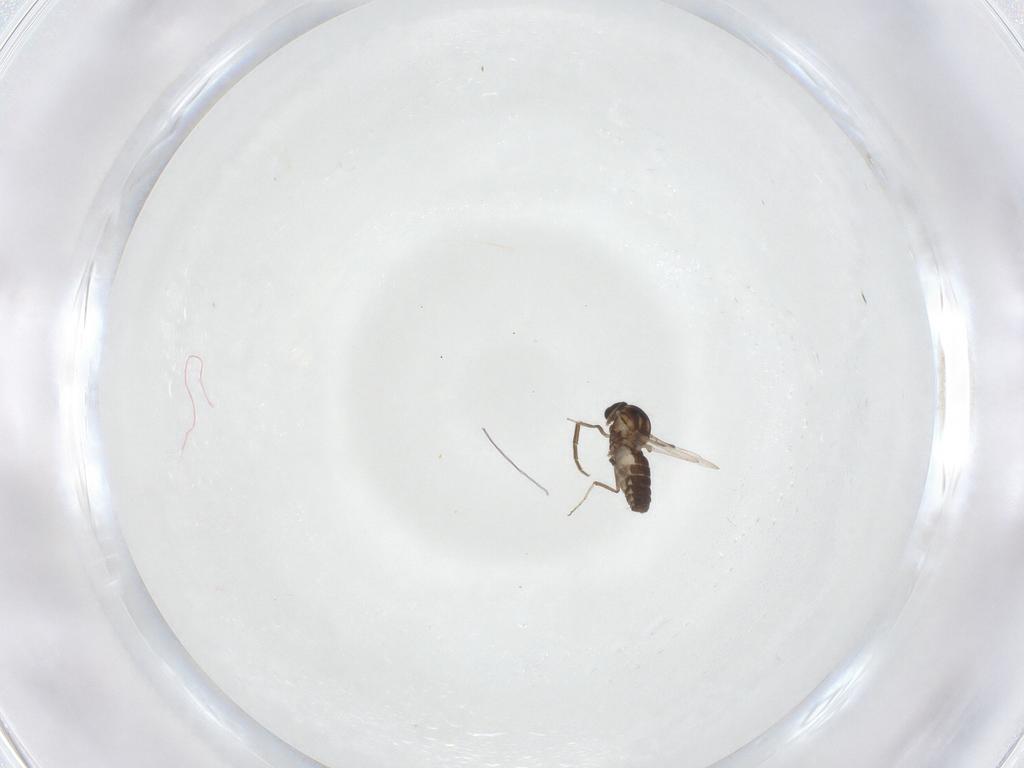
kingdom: Animalia
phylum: Arthropoda
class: Insecta
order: Diptera
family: Ceratopogonidae
